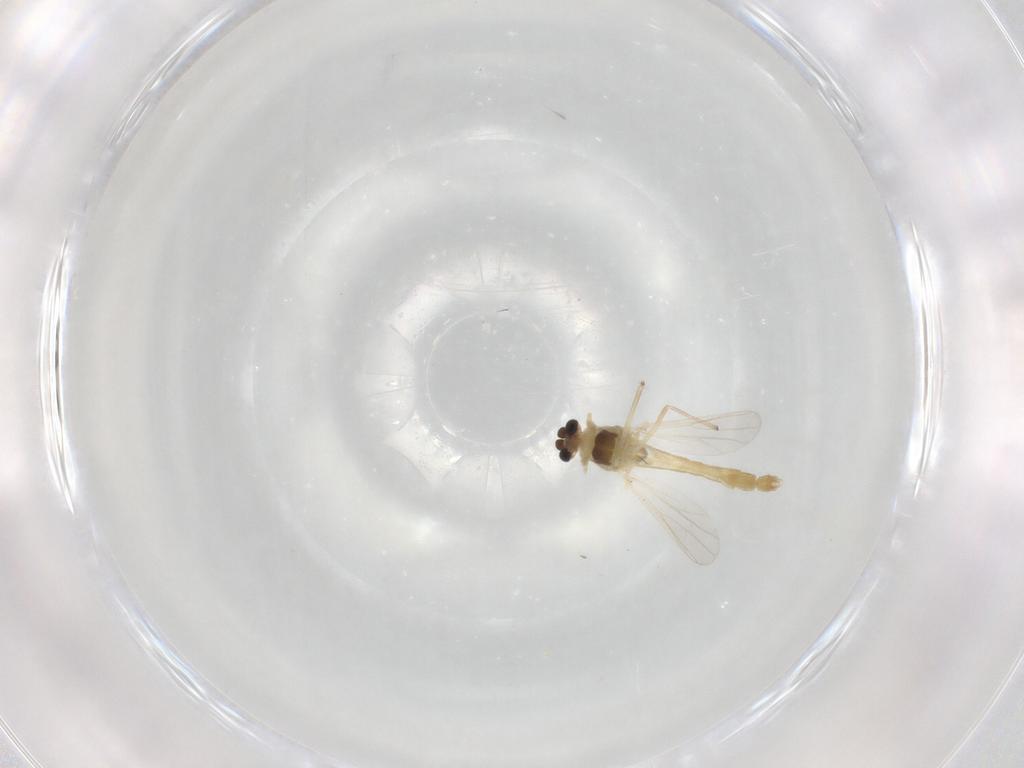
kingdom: Animalia
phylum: Arthropoda
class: Insecta
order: Diptera
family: Chironomidae
